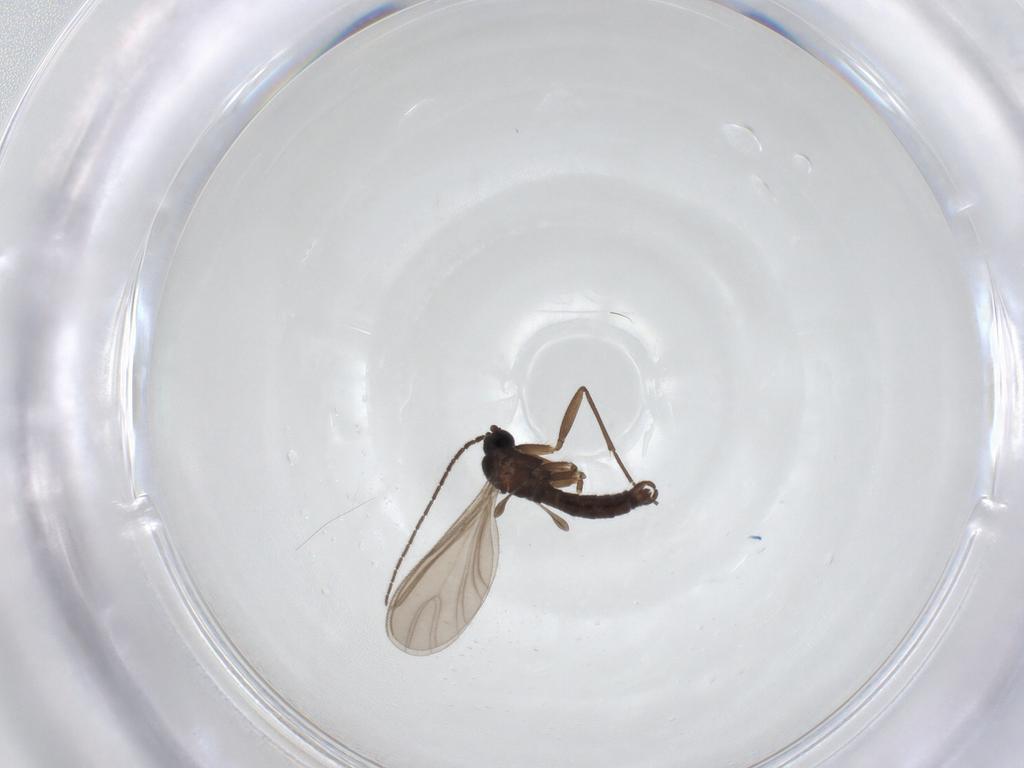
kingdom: Animalia
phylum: Arthropoda
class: Insecta
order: Diptera
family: Sciaridae
